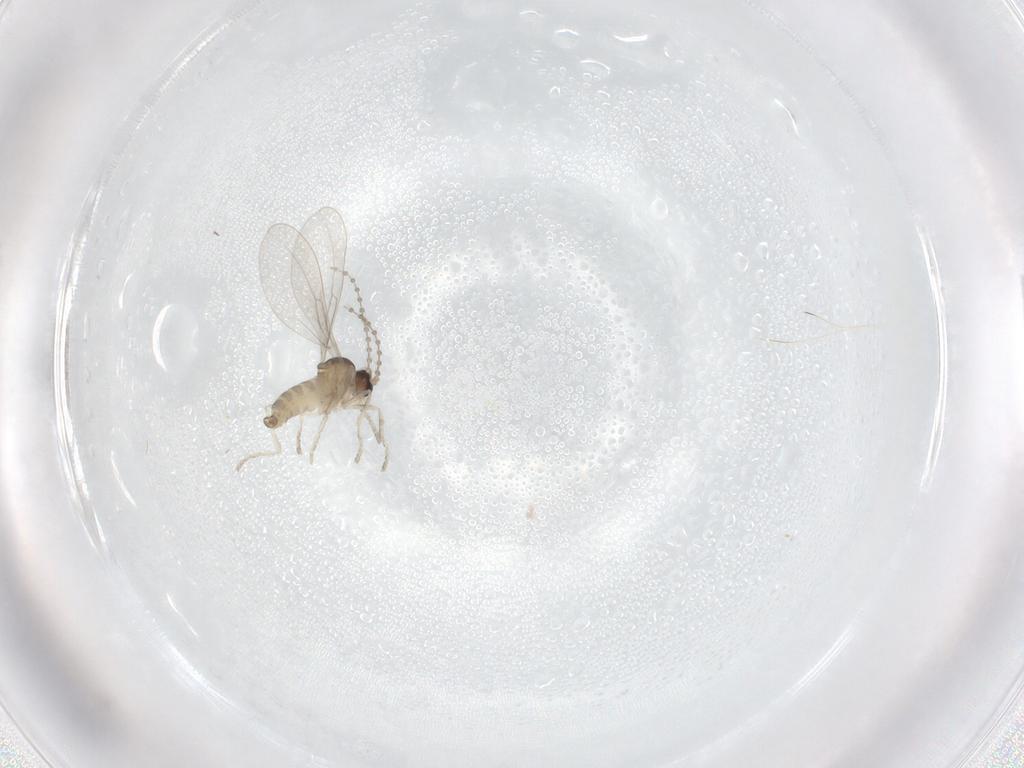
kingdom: Animalia
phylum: Arthropoda
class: Insecta
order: Diptera
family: Cecidomyiidae
